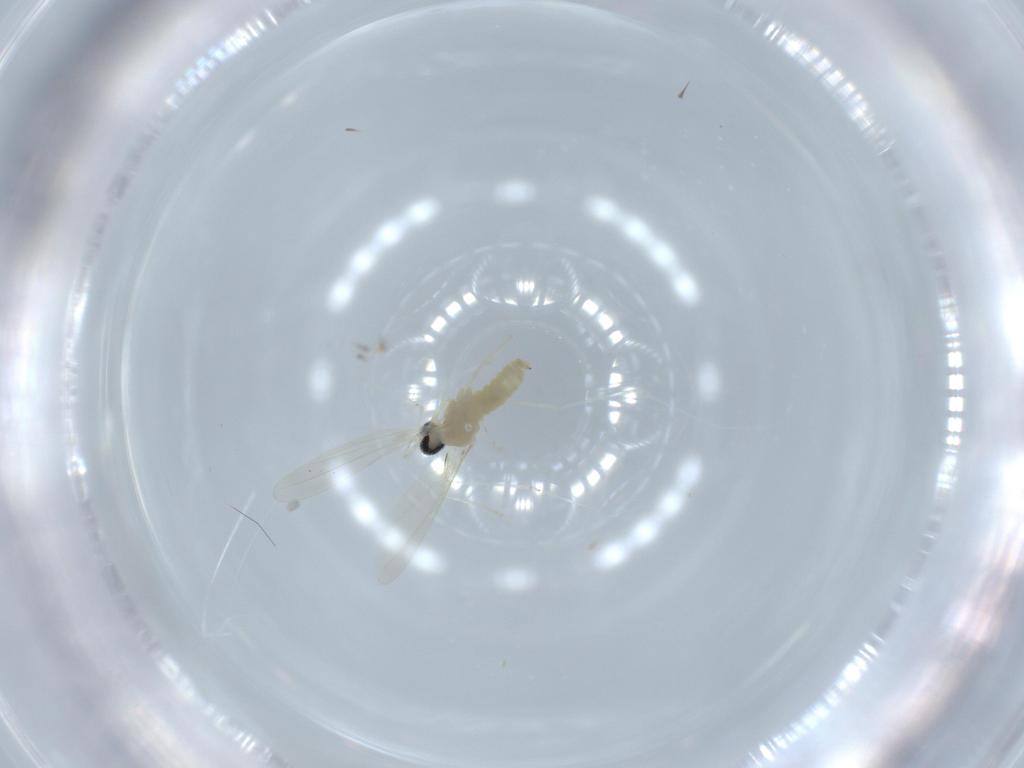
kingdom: Animalia
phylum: Arthropoda
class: Insecta
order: Diptera
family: Cecidomyiidae
